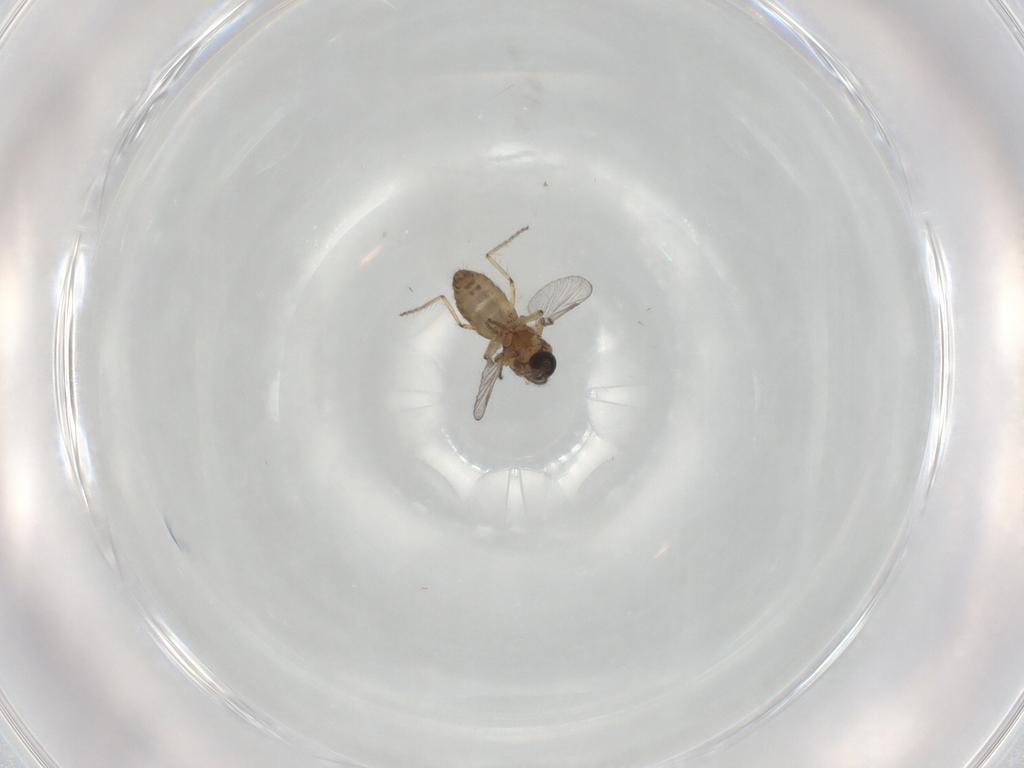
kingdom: Animalia
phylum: Arthropoda
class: Insecta
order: Diptera
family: Ceratopogonidae
